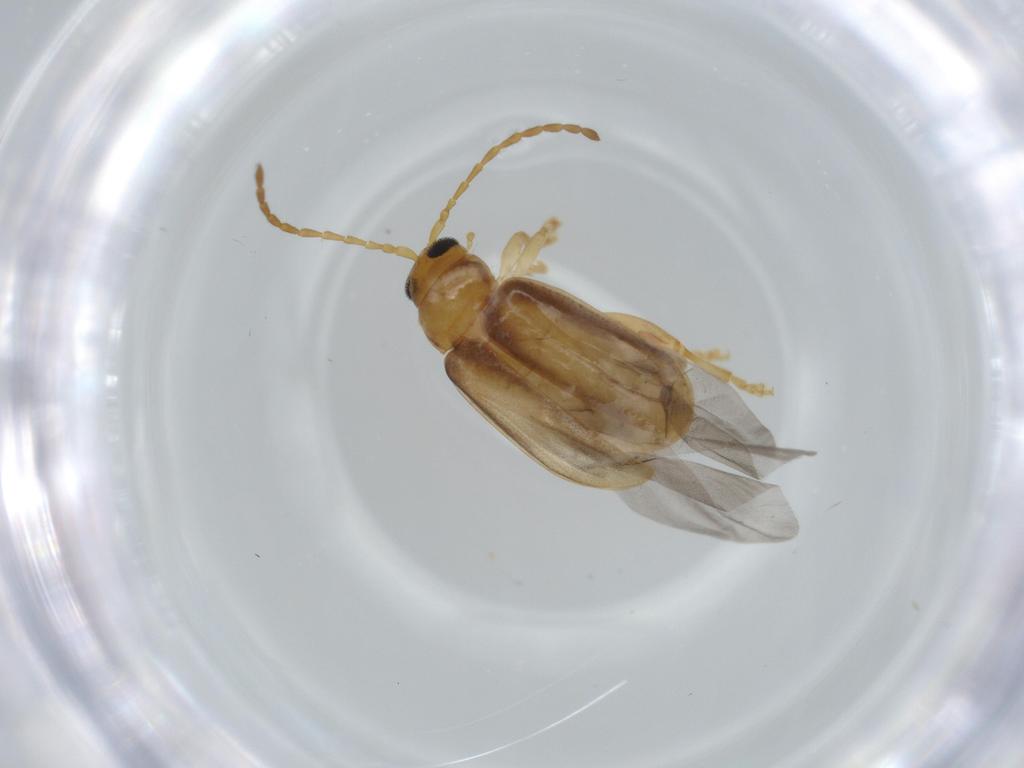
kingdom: Animalia
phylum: Arthropoda
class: Insecta
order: Coleoptera
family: Chrysomelidae
